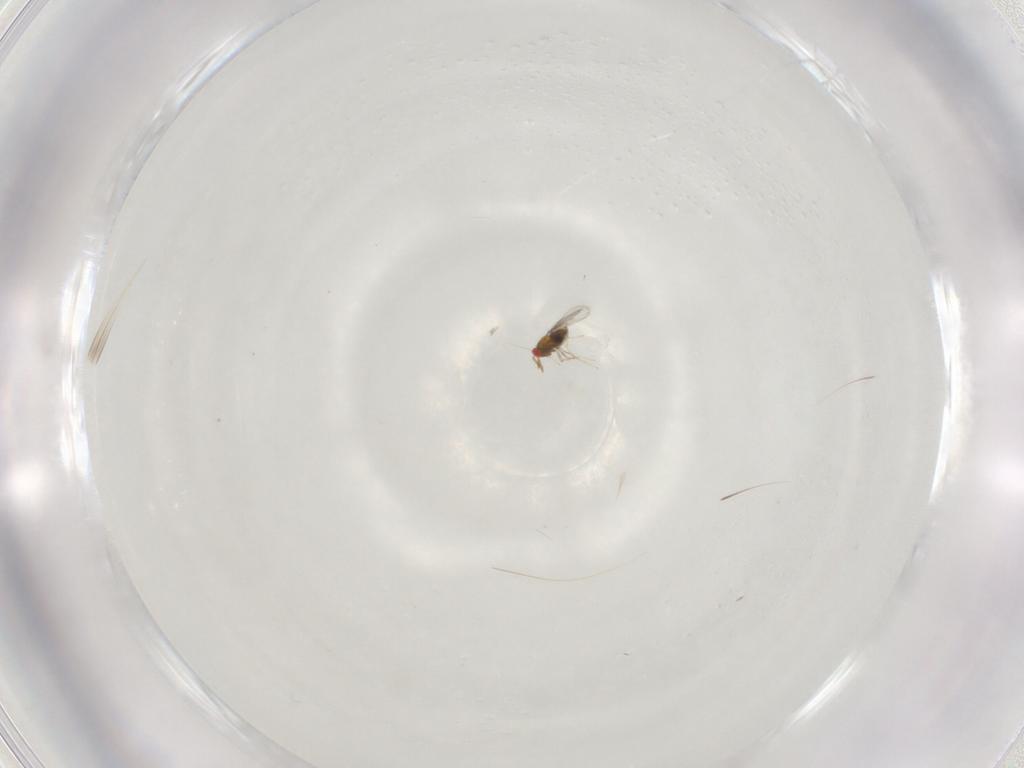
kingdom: Animalia
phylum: Arthropoda
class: Insecta
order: Hymenoptera
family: Trichogrammatidae
